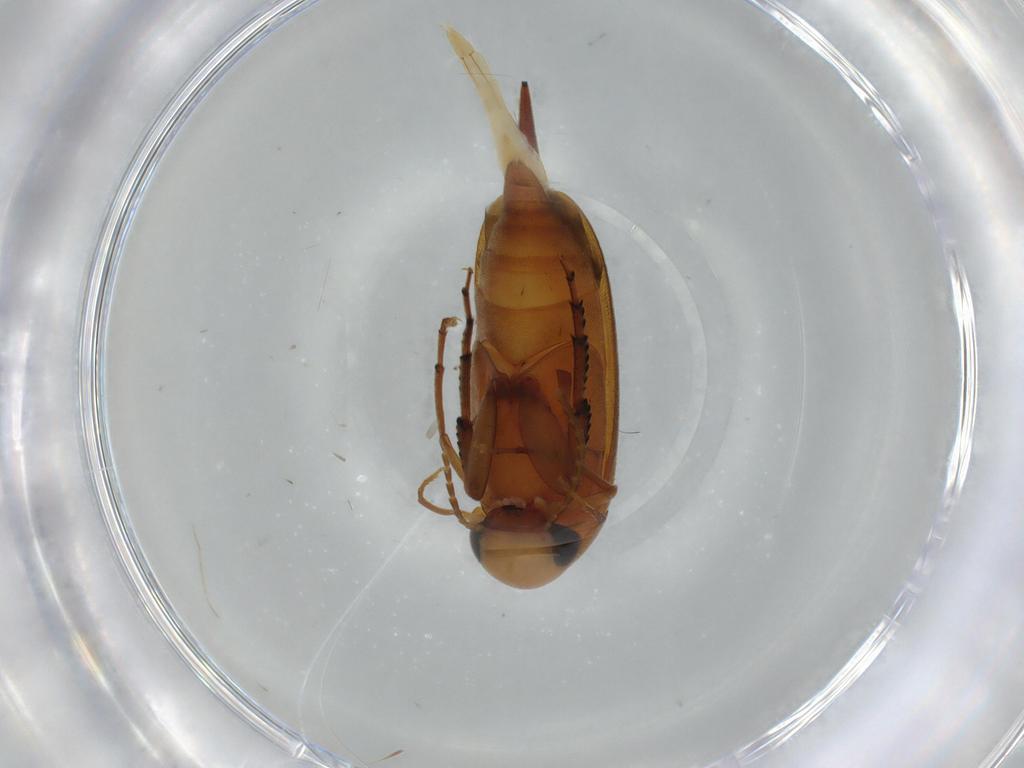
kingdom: Animalia
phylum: Arthropoda
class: Insecta
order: Coleoptera
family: Mordellidae
